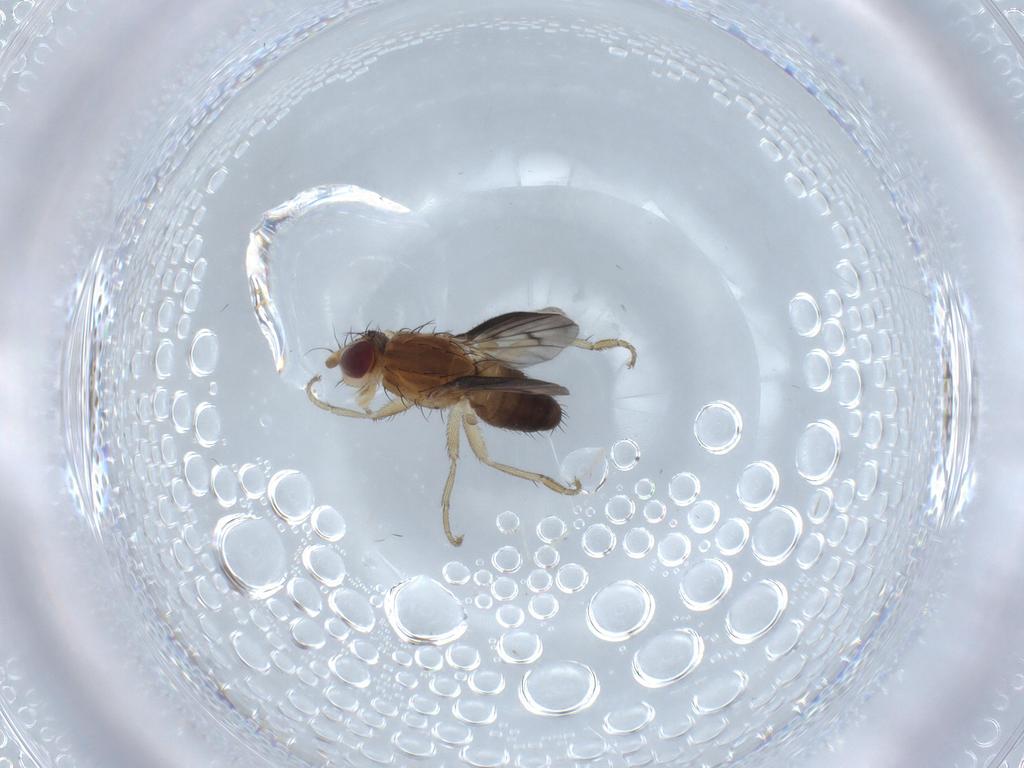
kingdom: Animalia
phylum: Arthropoda
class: Insecta
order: Diptera
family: Heleomyzidae
